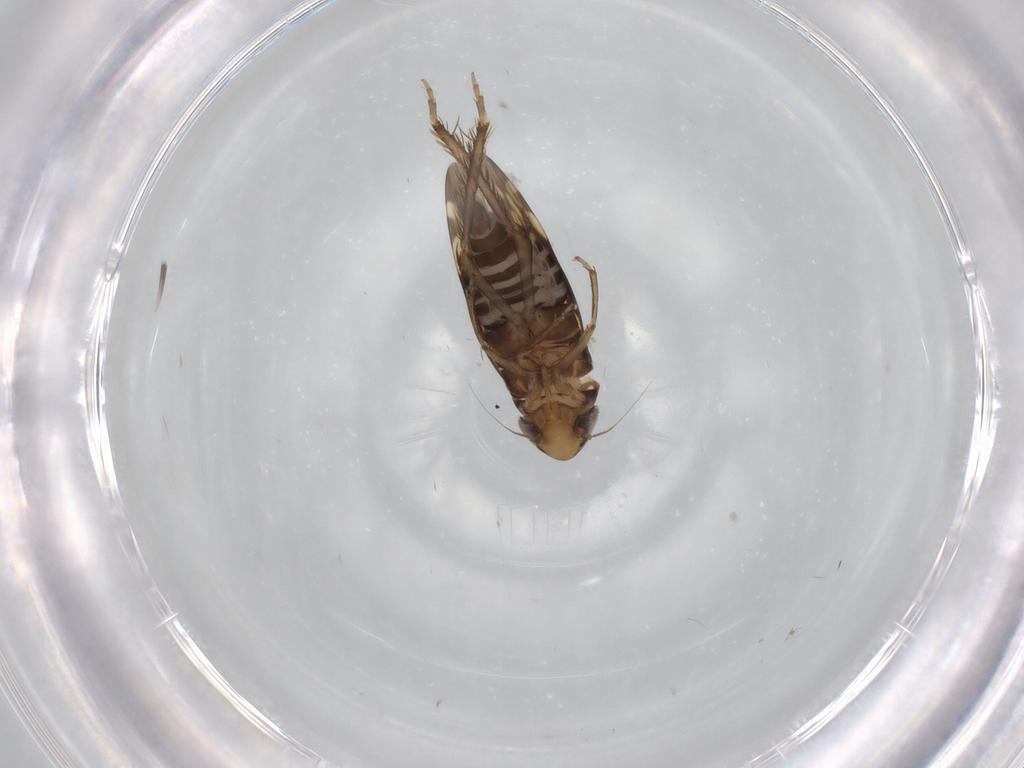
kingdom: Animalia
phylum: Arthropoda
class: Insecta
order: Hemiptera
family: Cicadellidae
